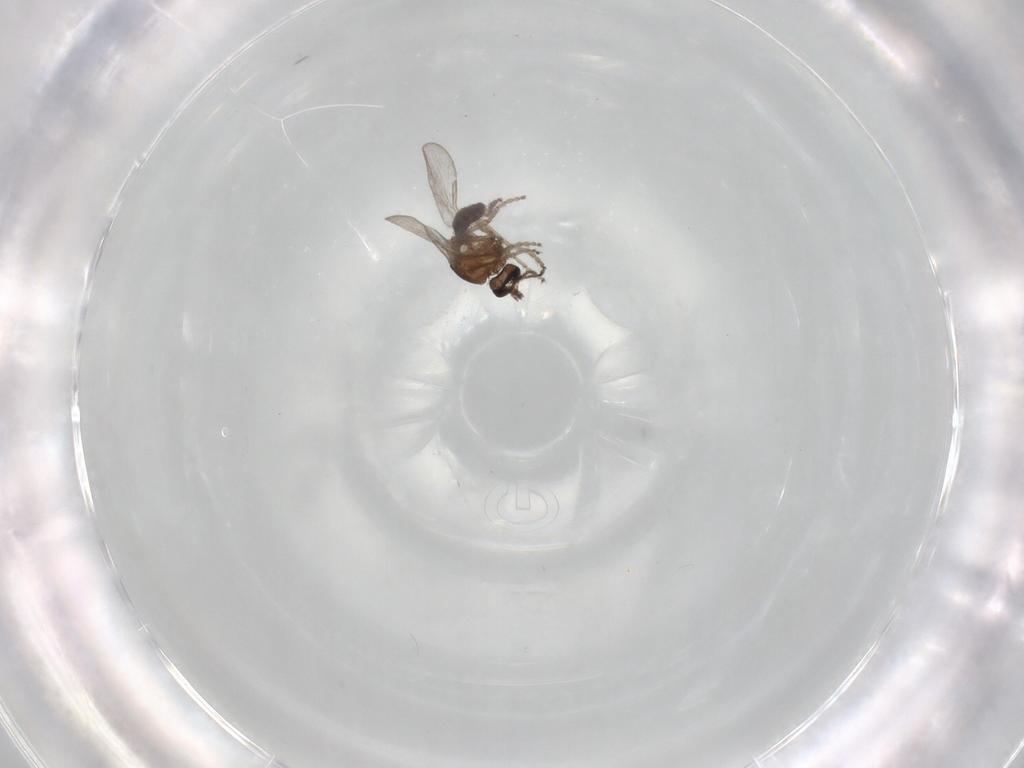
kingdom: Animalia
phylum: Arthropoda
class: Insecta
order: Diptera
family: Ceratopogonidae
